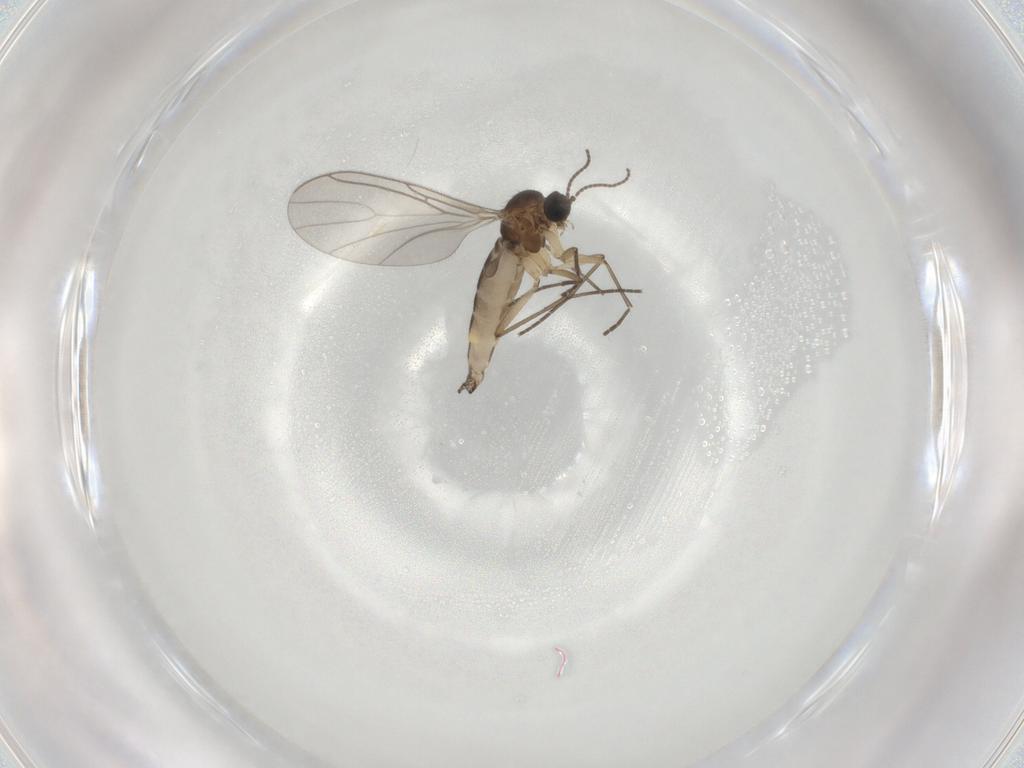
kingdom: Animalia
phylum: Arthropoda
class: Insecta
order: Diptera
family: Sciaridae
